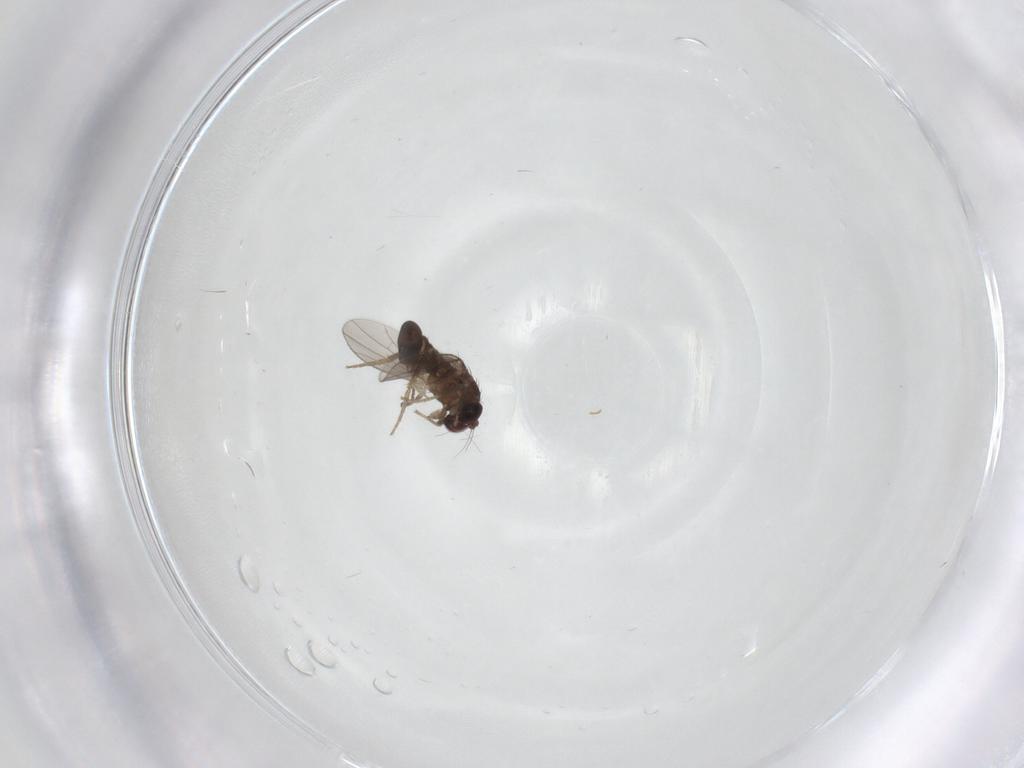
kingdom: Animalia
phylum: Arthropoda
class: Insecta
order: Diptera
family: Dolichopodidae
